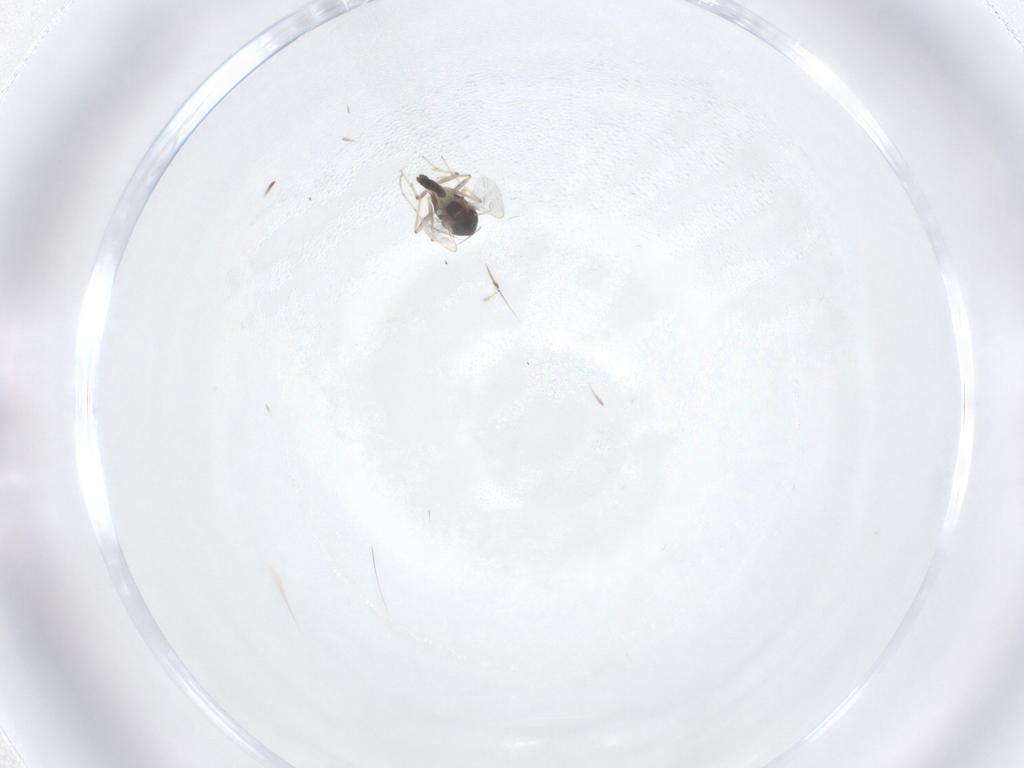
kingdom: Animalia
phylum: Arthropoda
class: Insecta
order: Diptera
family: Chironomidae
